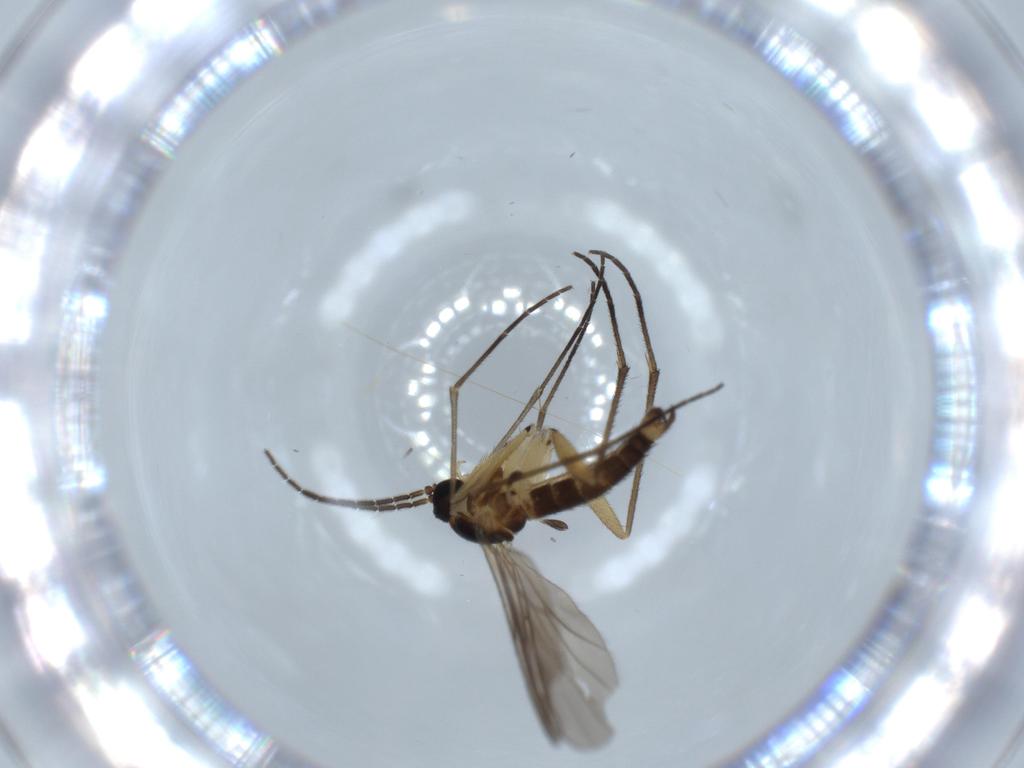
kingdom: Animalia
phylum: Arthropoda
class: Insecta
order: Diptera
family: Sciaridae
